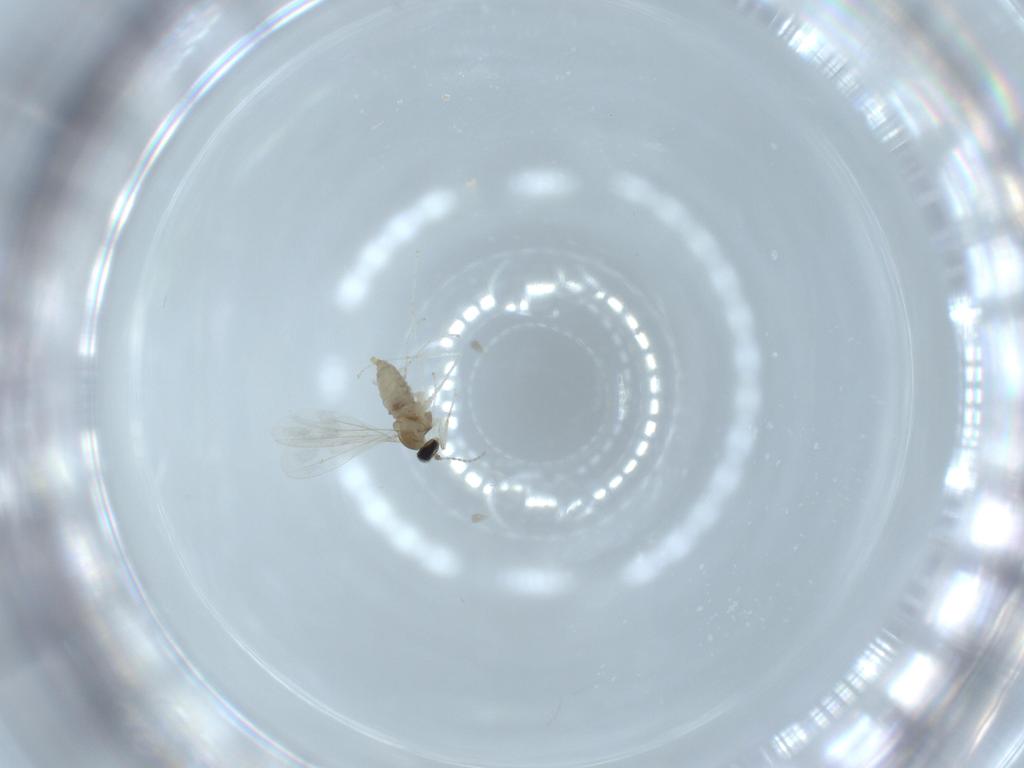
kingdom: Animalia
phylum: Arthropoda
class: Insecta
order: Diptera
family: Cecidomyiidae
